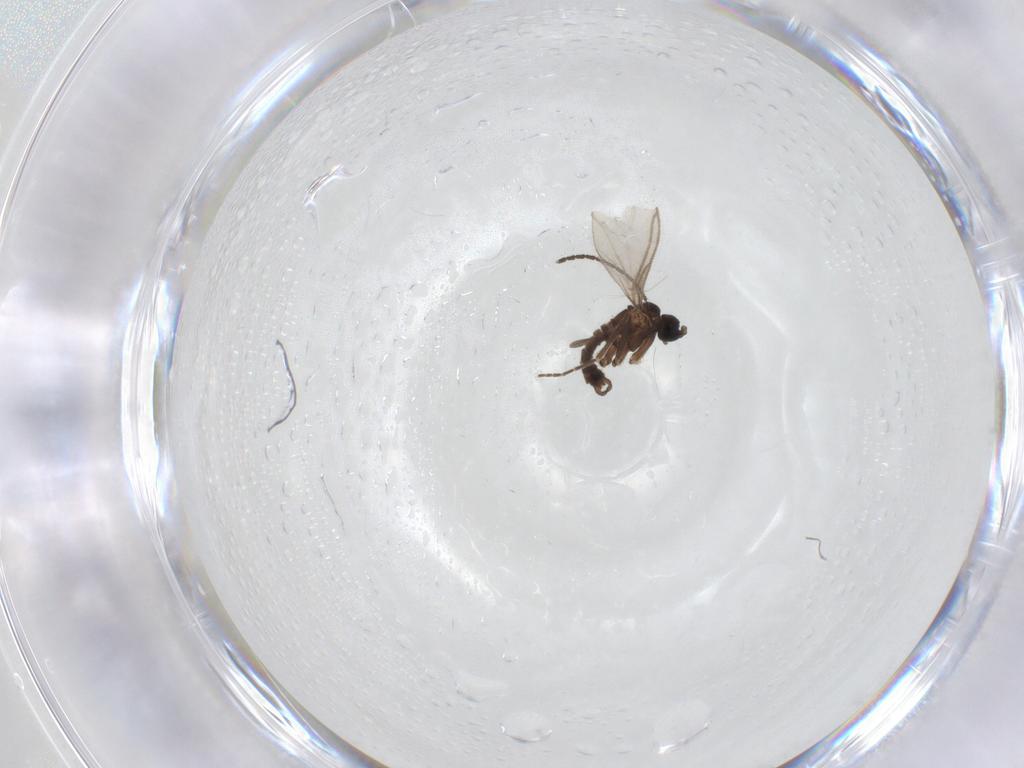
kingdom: Animalia
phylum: Arthropoda
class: Insecta
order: Diptera
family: Sciaridae
